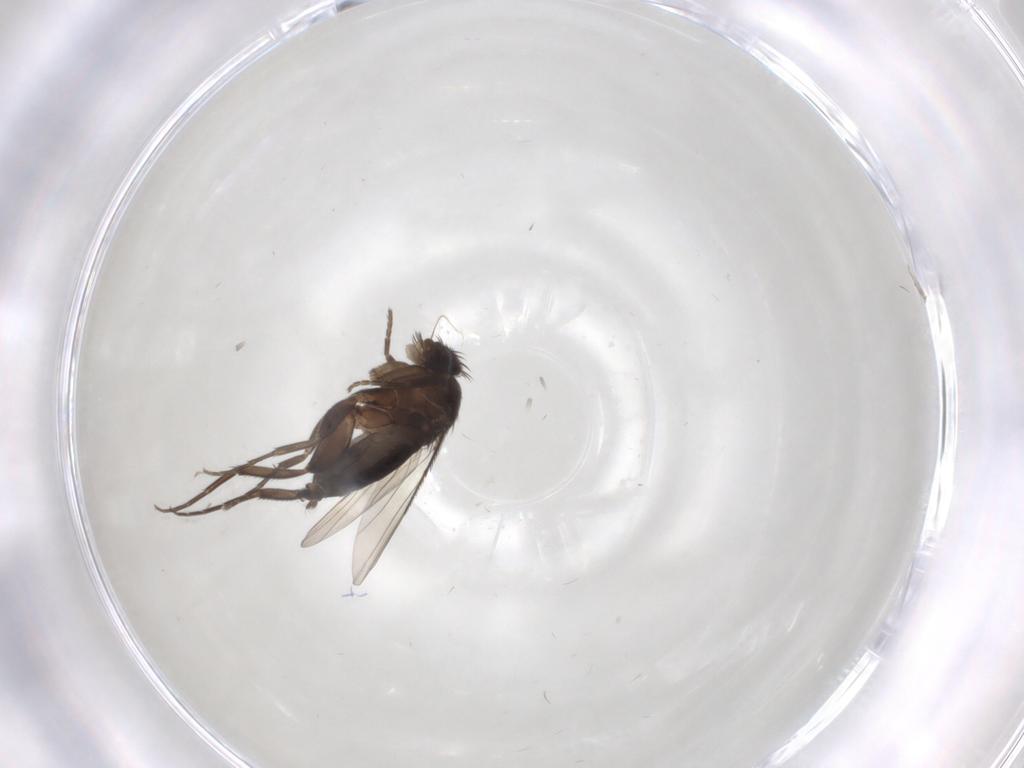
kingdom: Animalia
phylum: Arthropoda
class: Insecta
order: Diptera
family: Phoridae
